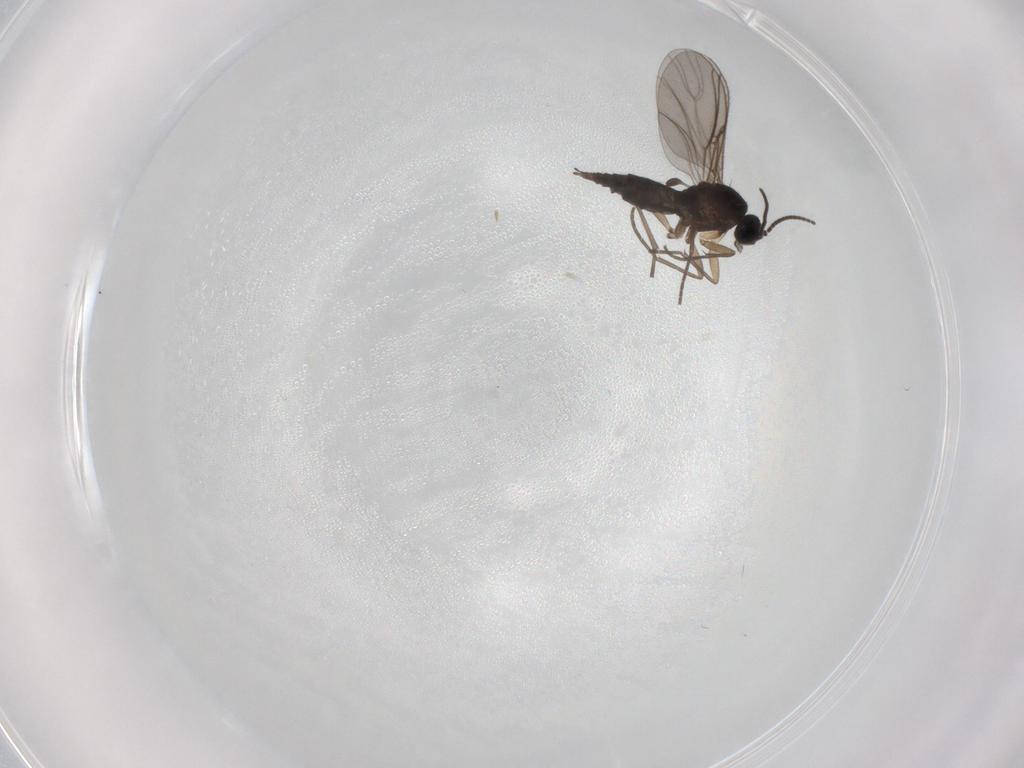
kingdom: Animalia
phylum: Arthropoda
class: Insecta
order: Diptera
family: Sciaridae
